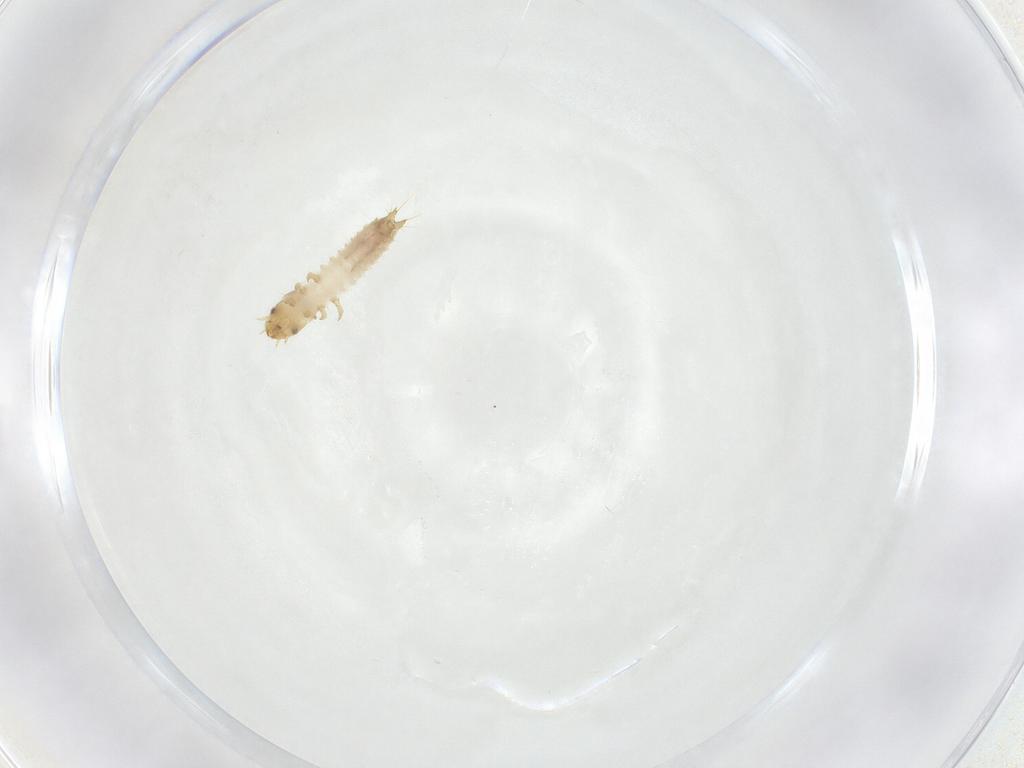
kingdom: Animalia
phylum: Arthropoda
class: Insecta
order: Coleoptera
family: Nitidulidae
